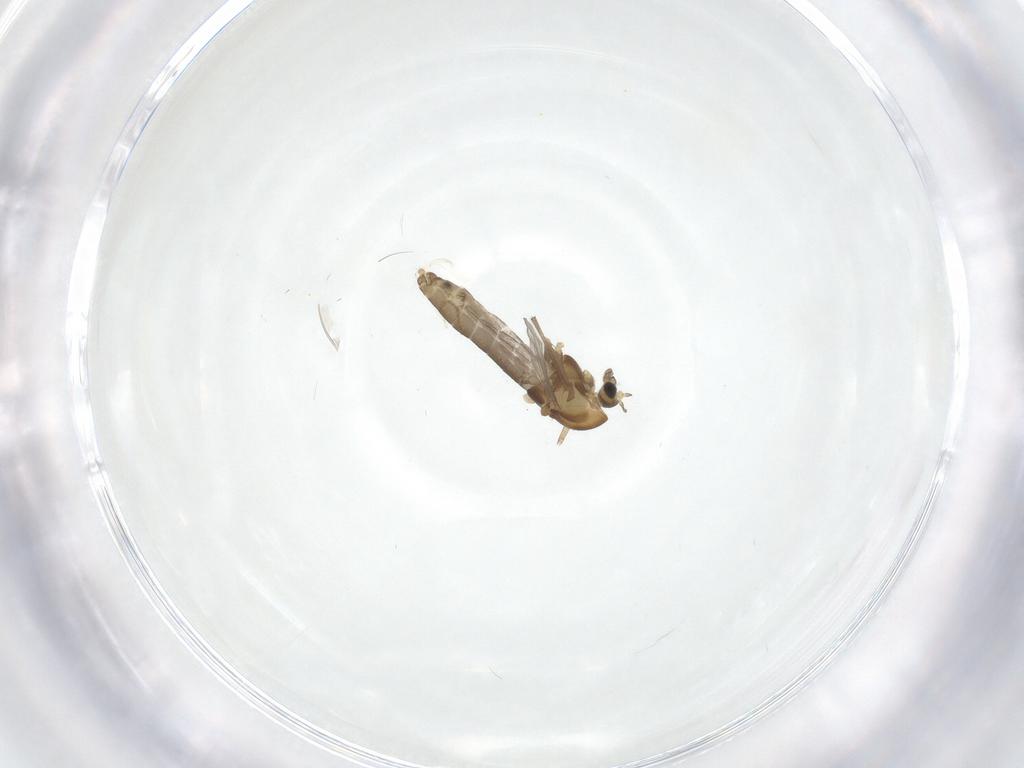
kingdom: Animalia
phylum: Arthropoda
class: Insecta
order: Diptera
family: Chironomidae
